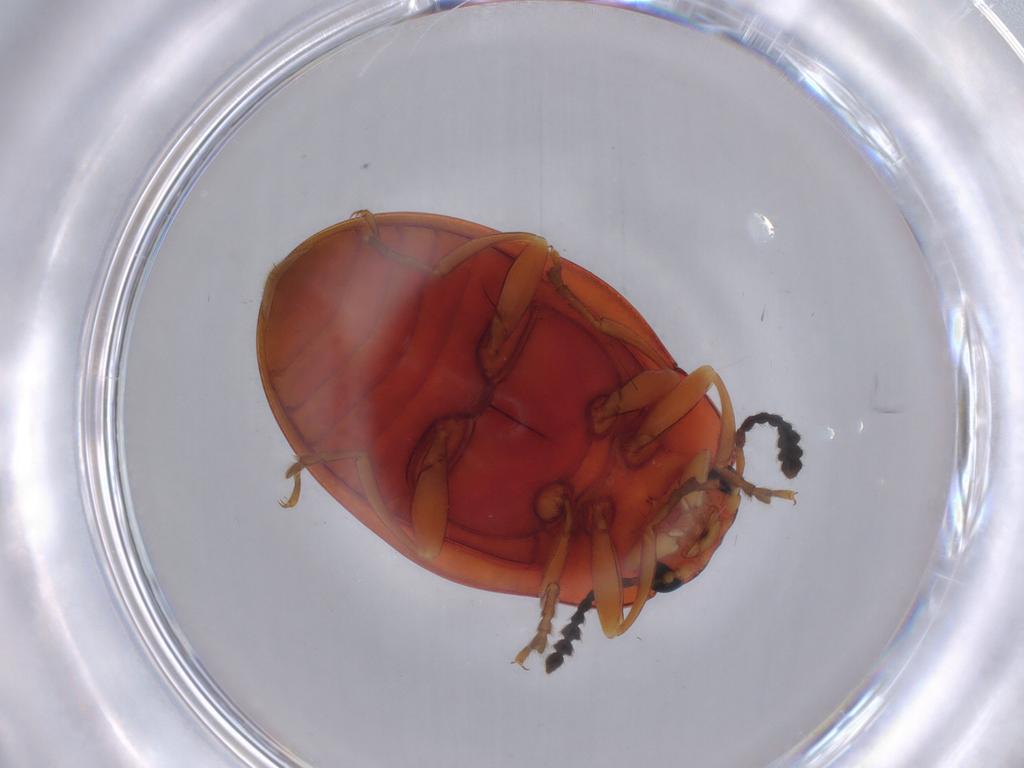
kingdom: Animalia
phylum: Arthropoda
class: Insecta
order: Coleoptera
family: Erotylidae
